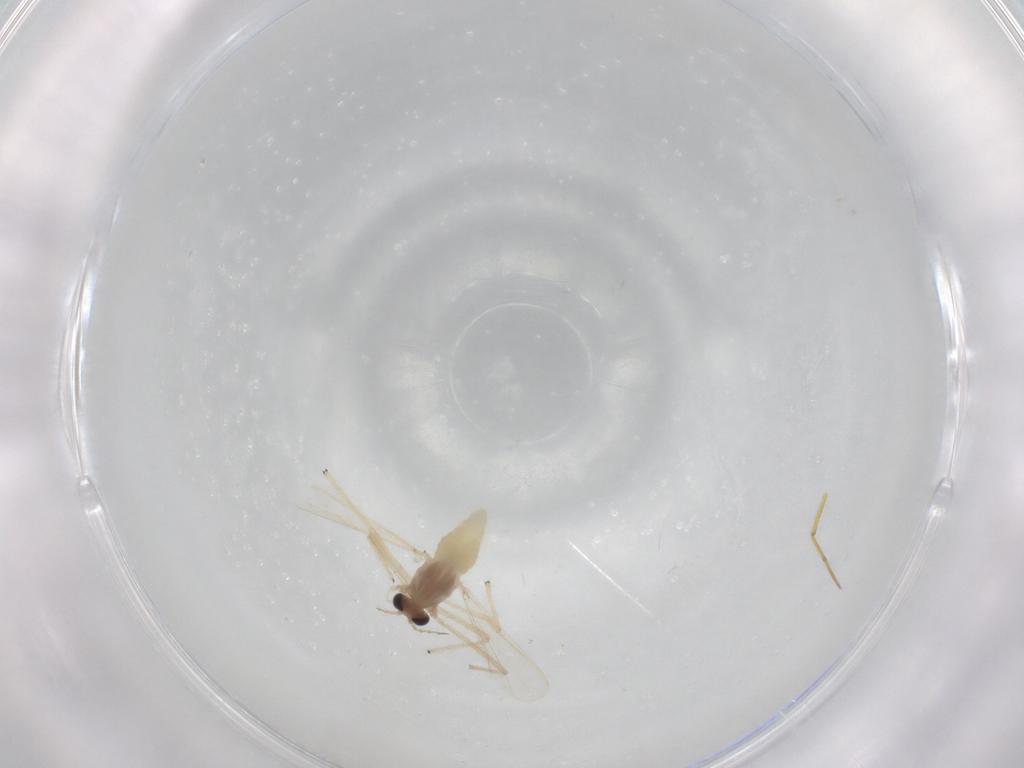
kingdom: Animalia
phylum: Arthropoda
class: Insecta
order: Diptera
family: Chironomidae
